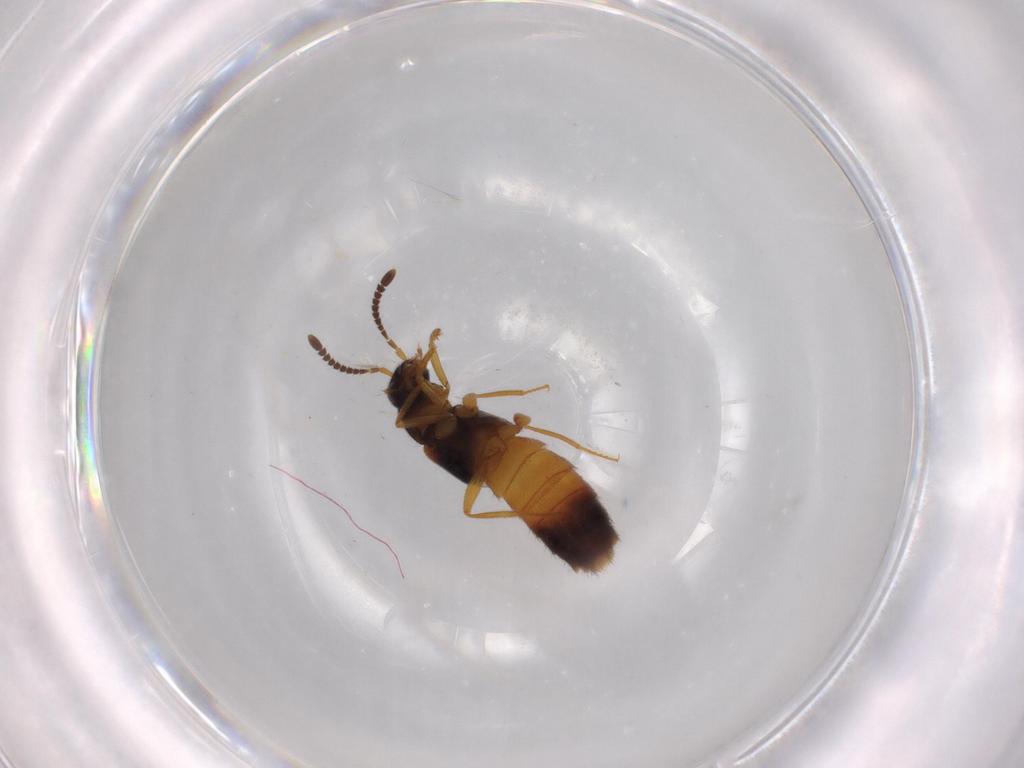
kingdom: Animalia
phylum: Arthropoda
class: Insecta
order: Coleoptera
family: Staphylinidae
